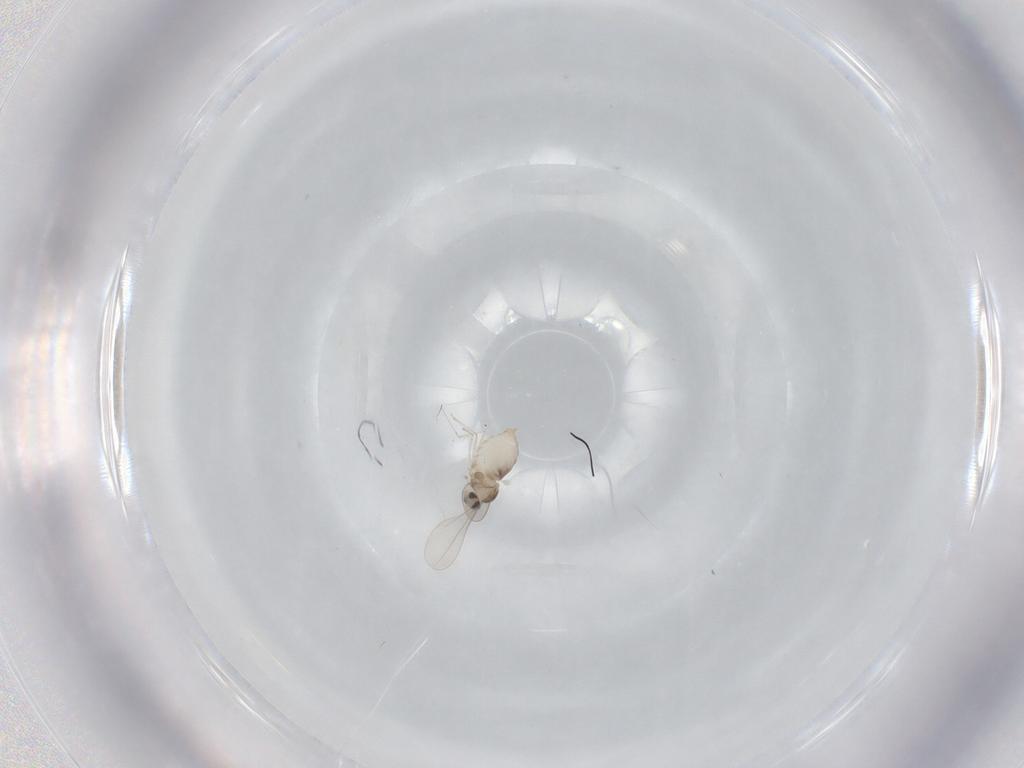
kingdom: Animalia
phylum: Arthropoda
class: Insecta
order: Diptera
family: Cecidomyiidae
